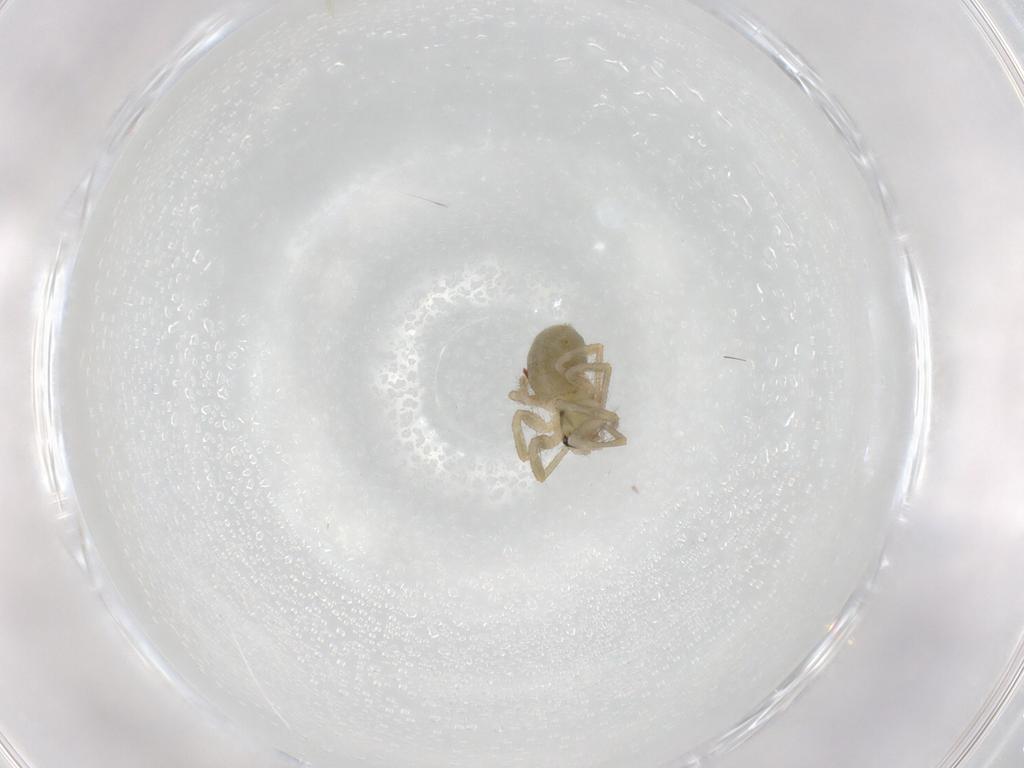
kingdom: Animalia
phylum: Arthropoda
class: Arachnida
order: Araneae
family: Linyphiidae
